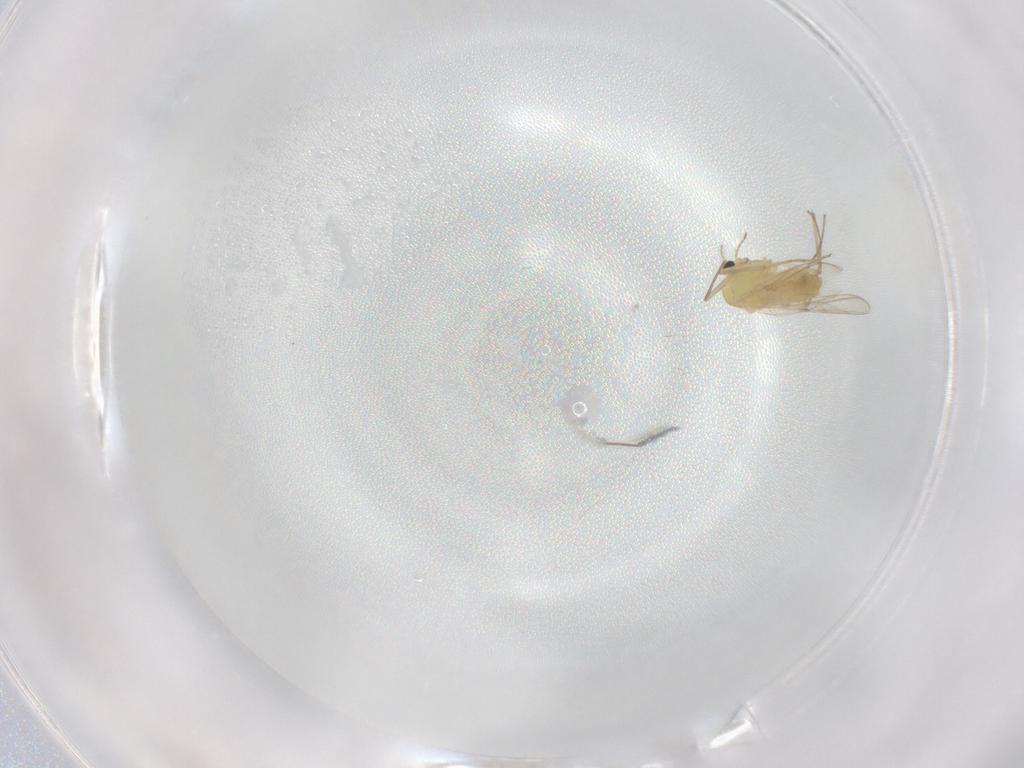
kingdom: Animalia
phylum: Arthropoda
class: Insecta
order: Diptera
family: Chironomidae
